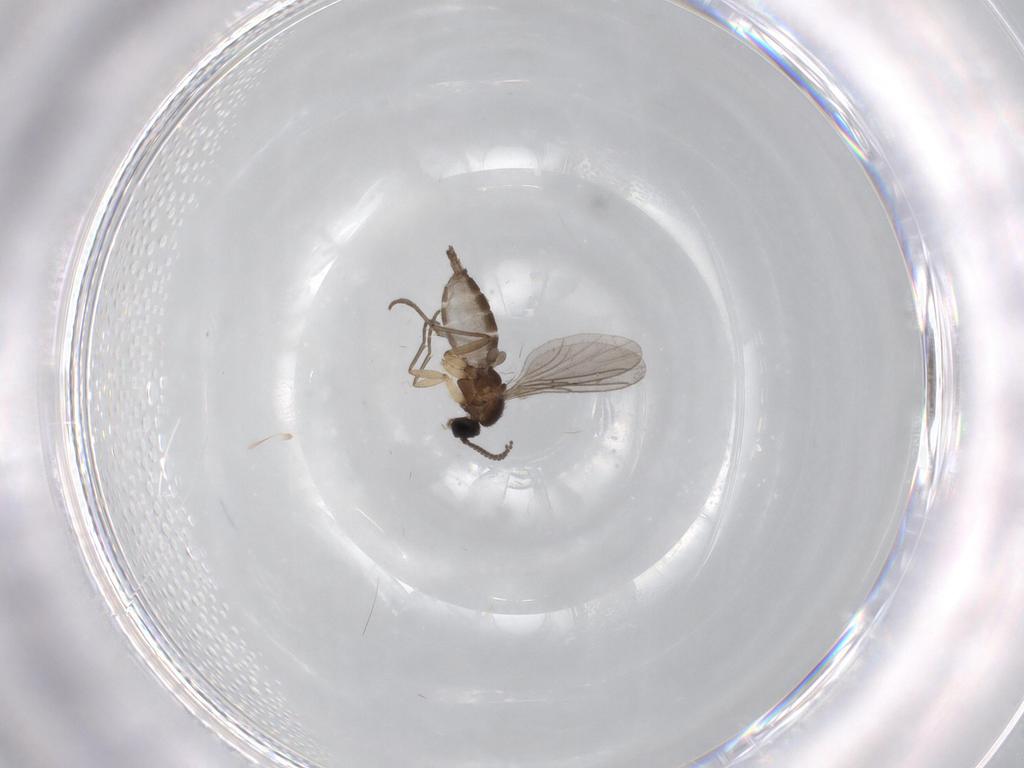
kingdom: Animalia
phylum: Arthropoda
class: Insecta
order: Diptera
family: Sciaridae
